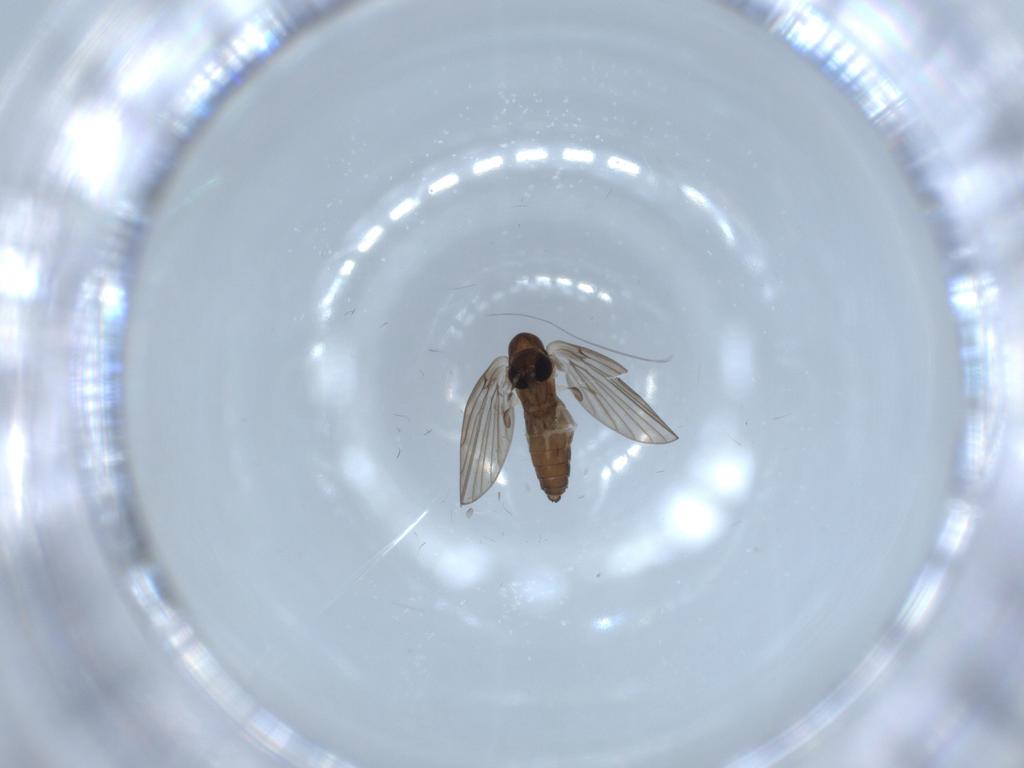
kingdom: Animalia
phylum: Arthropoda
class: Insecta
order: Diptera
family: Psychodidae
